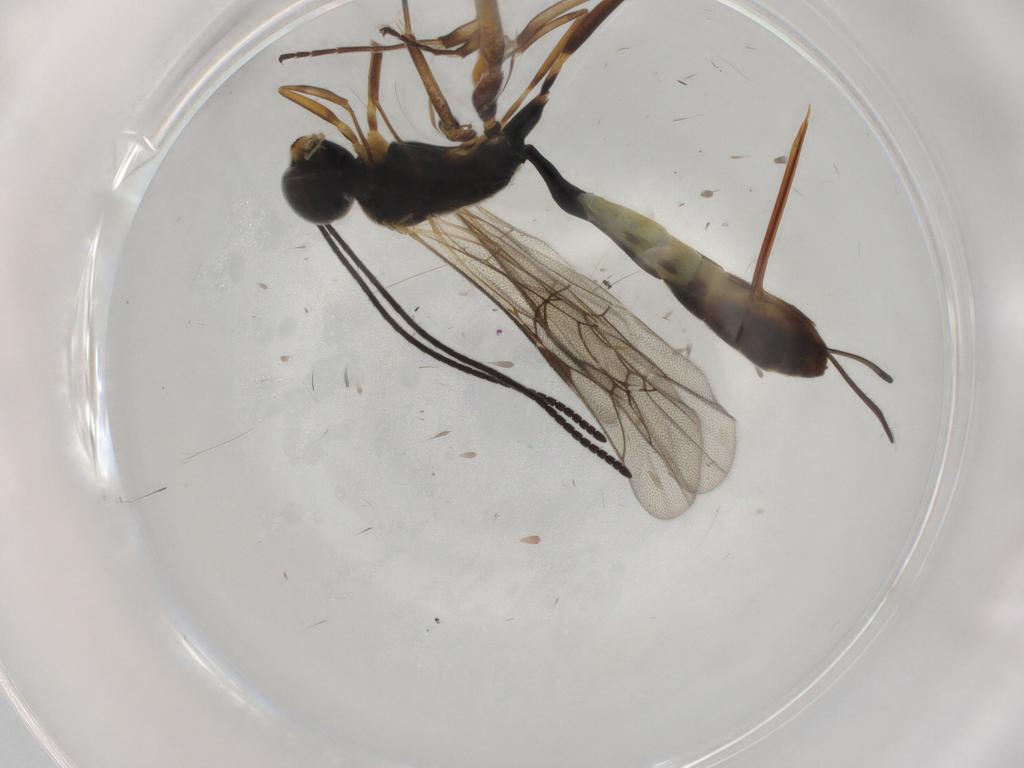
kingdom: Animalia
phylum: Arthropoda
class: Insecta
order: Hymenoptera
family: Ichneumonidae
